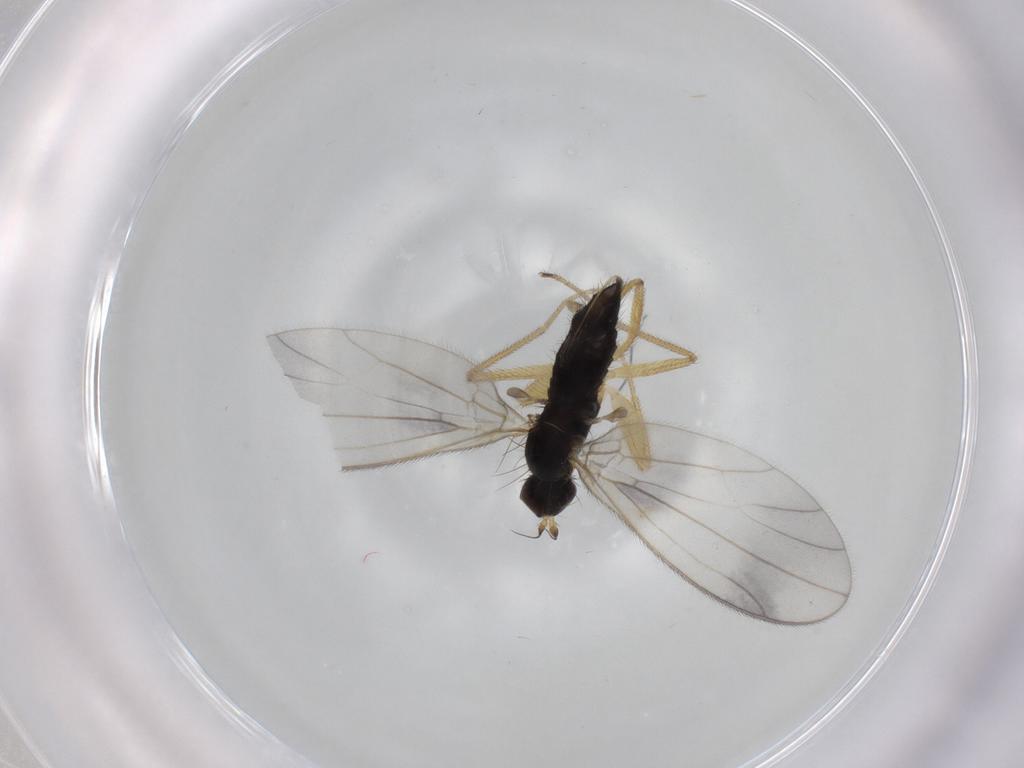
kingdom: Animalia
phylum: Arthropoda
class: Insecta
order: Diptera
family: Empididae
